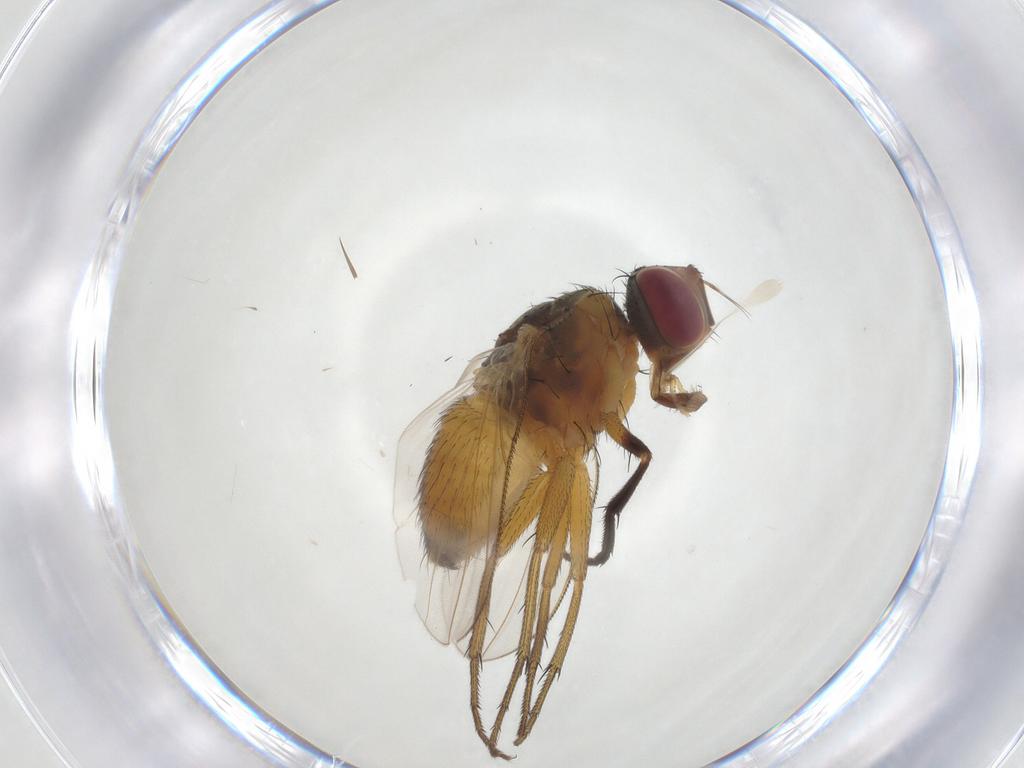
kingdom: Animalia
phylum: Arthropoda
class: Insecta
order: Diptera
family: Muscidae
